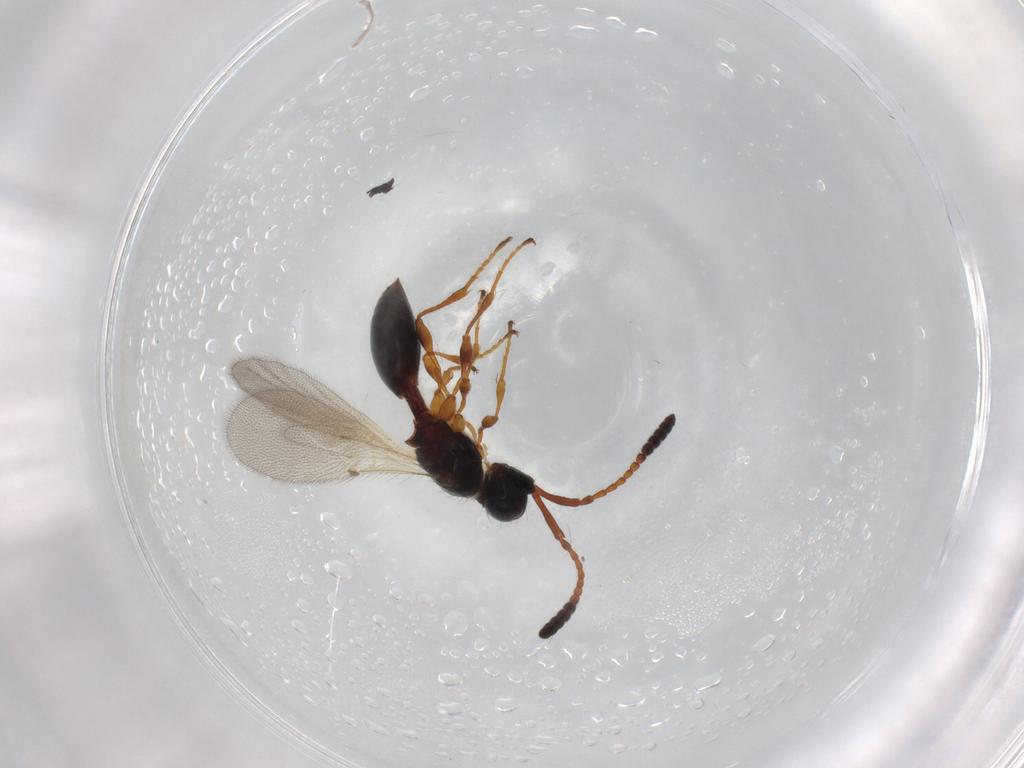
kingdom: Animalia
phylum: Arthropoda
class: Insecta
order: Hymenoptera
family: Diapriidae
